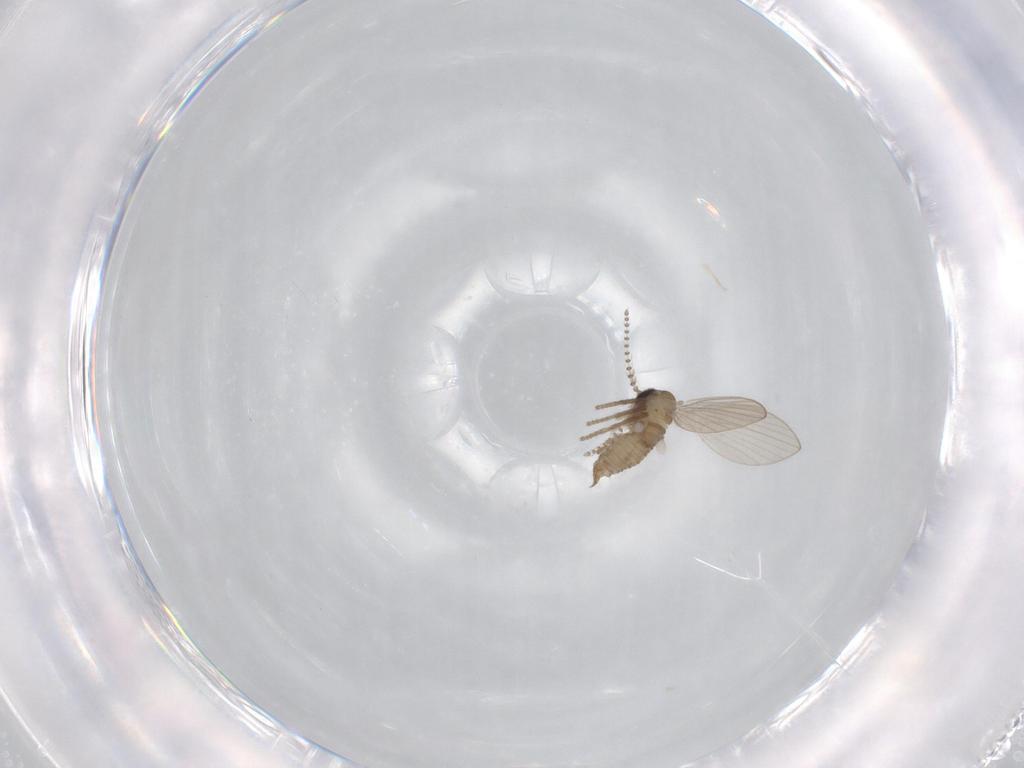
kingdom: Animalia
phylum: Arthropoda
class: Insecta
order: Diptera
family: Psychodidae
